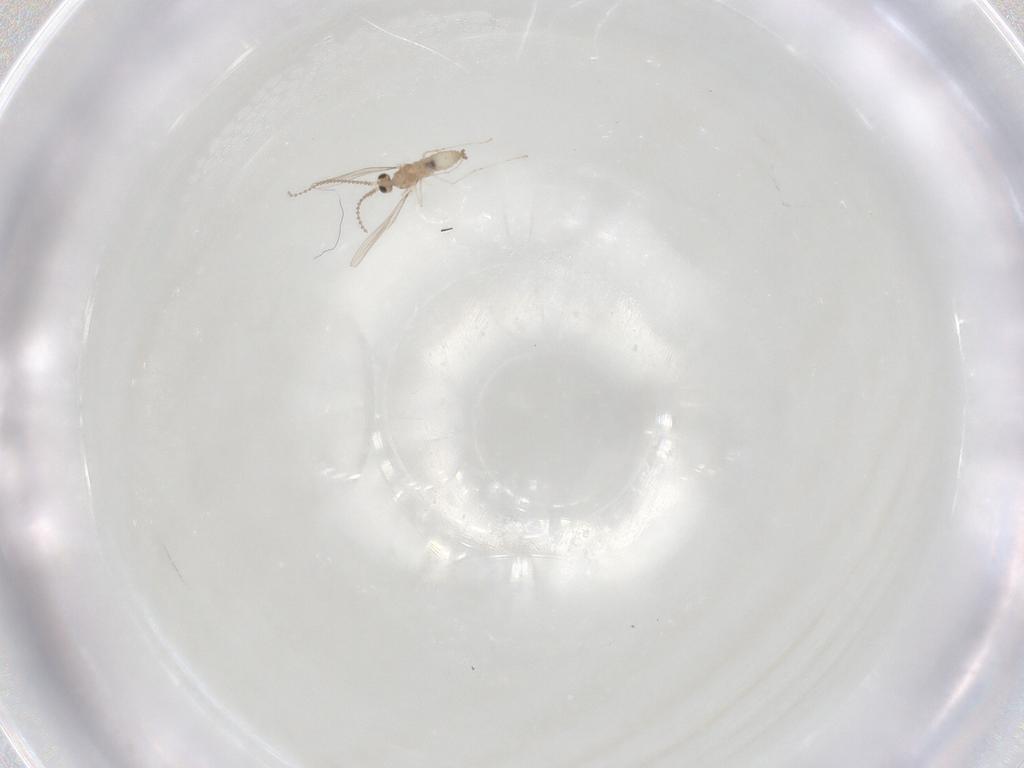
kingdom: Animalia
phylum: Arthropoda
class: Insecta
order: Diptera
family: Cecidomyiidae
